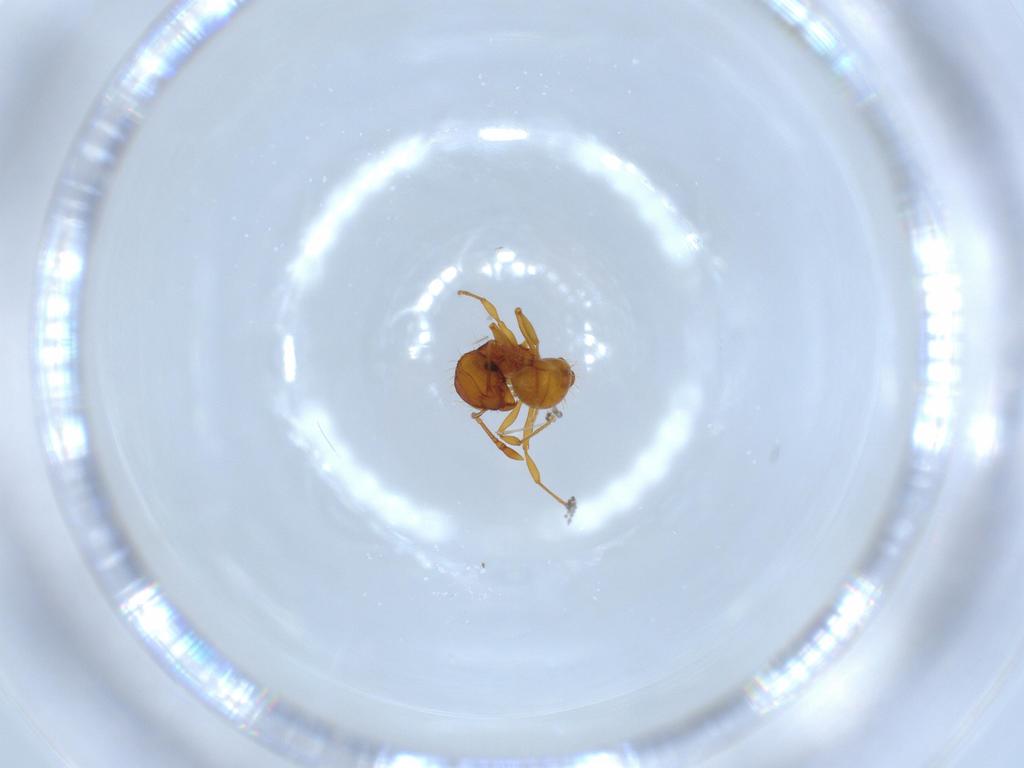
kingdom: Animalia
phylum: Arthropoda
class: Insecta
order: Hymenoptera
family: Formicidae
